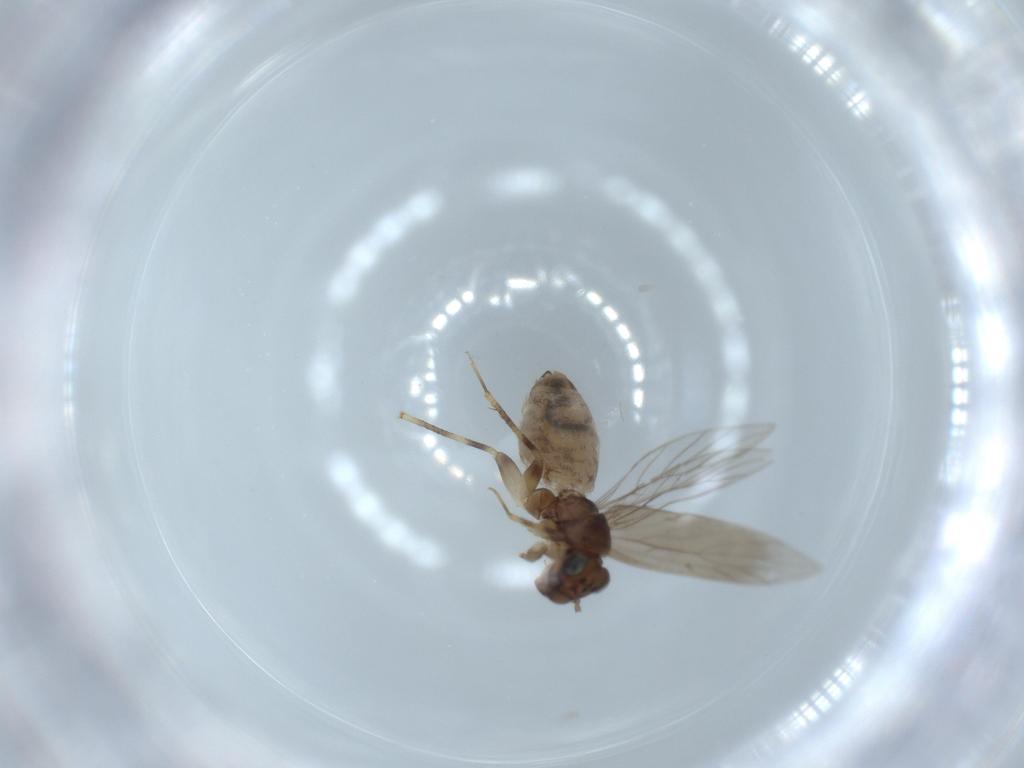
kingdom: Animalia
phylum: Arthropoda
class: Insecta
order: Psocodea
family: Lepidopsocidae
